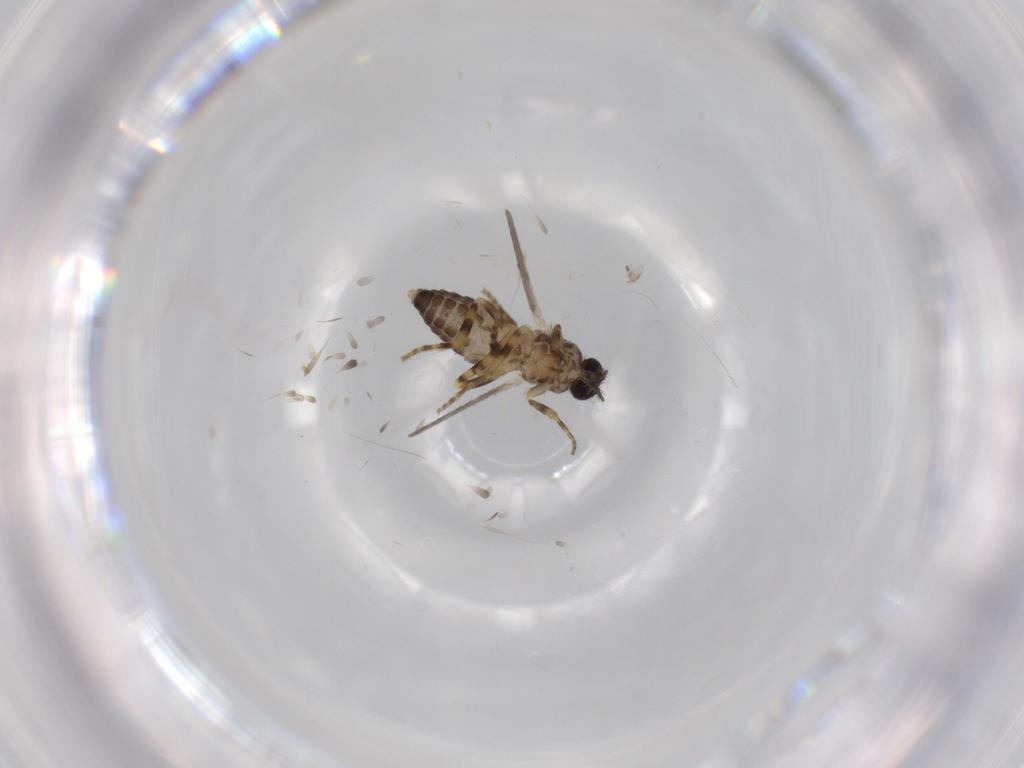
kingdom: Animalia
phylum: Arthropoda
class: Insecta
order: Diptera
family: Ceratopogonidae
